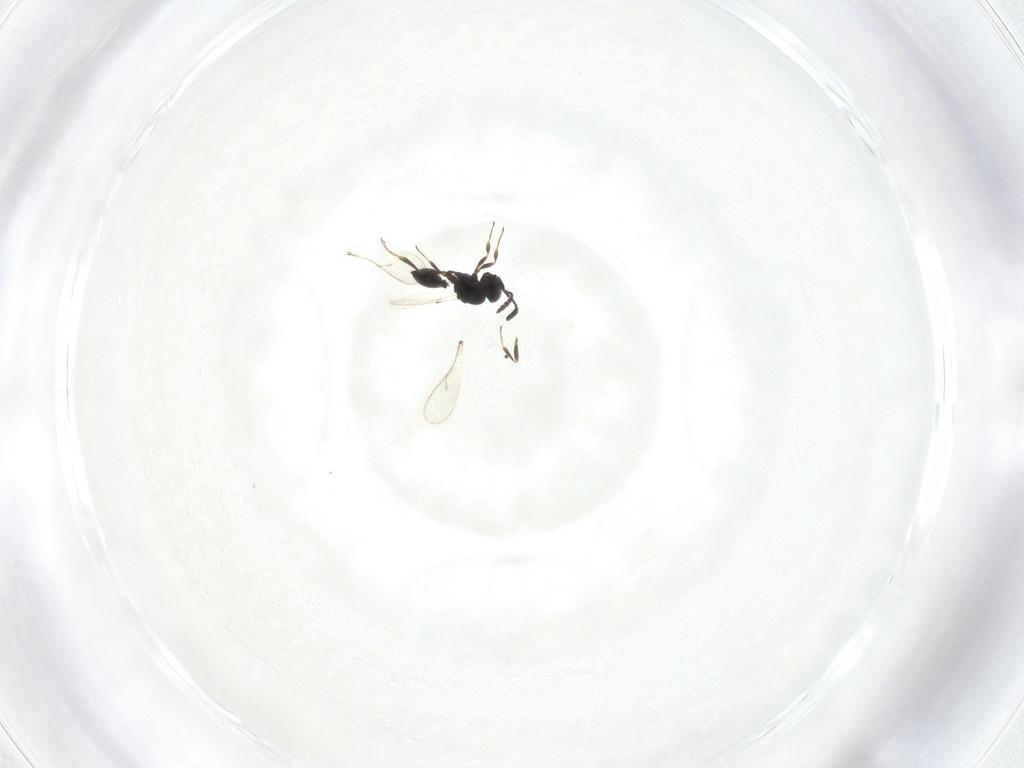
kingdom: Animalia
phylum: Arthropoda
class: Insecta
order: Hymenoptera
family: Scelionidae
